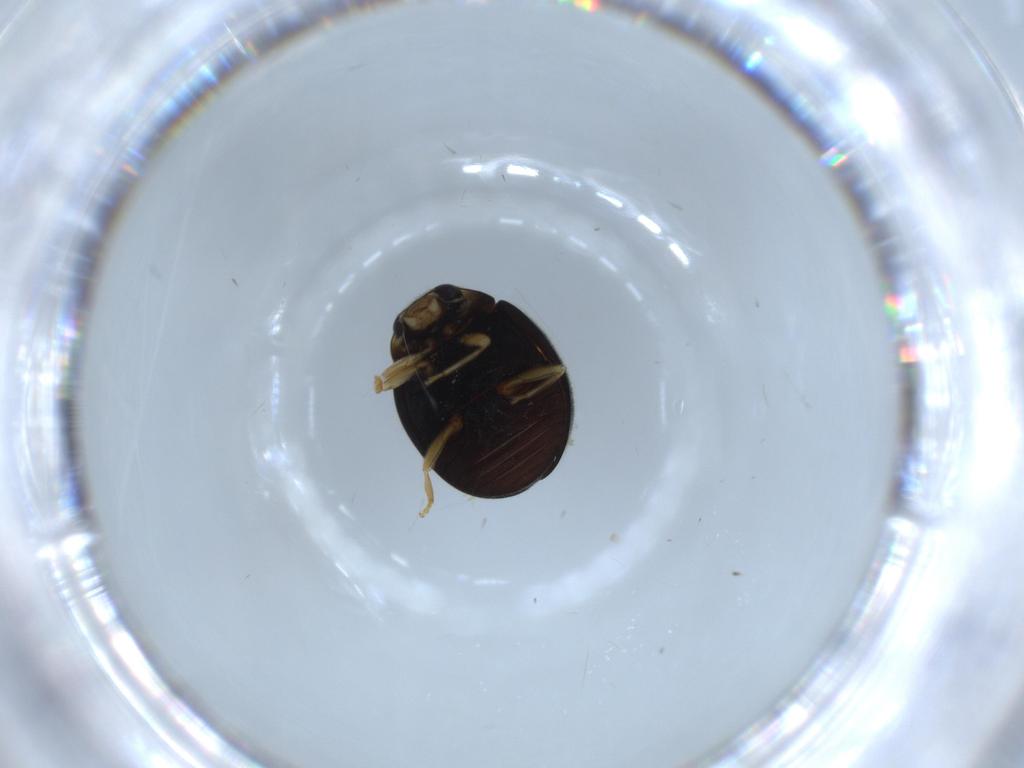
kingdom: Animalia
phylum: Arthropoda
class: Insecta
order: Coleoptera
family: Coccinellidae
